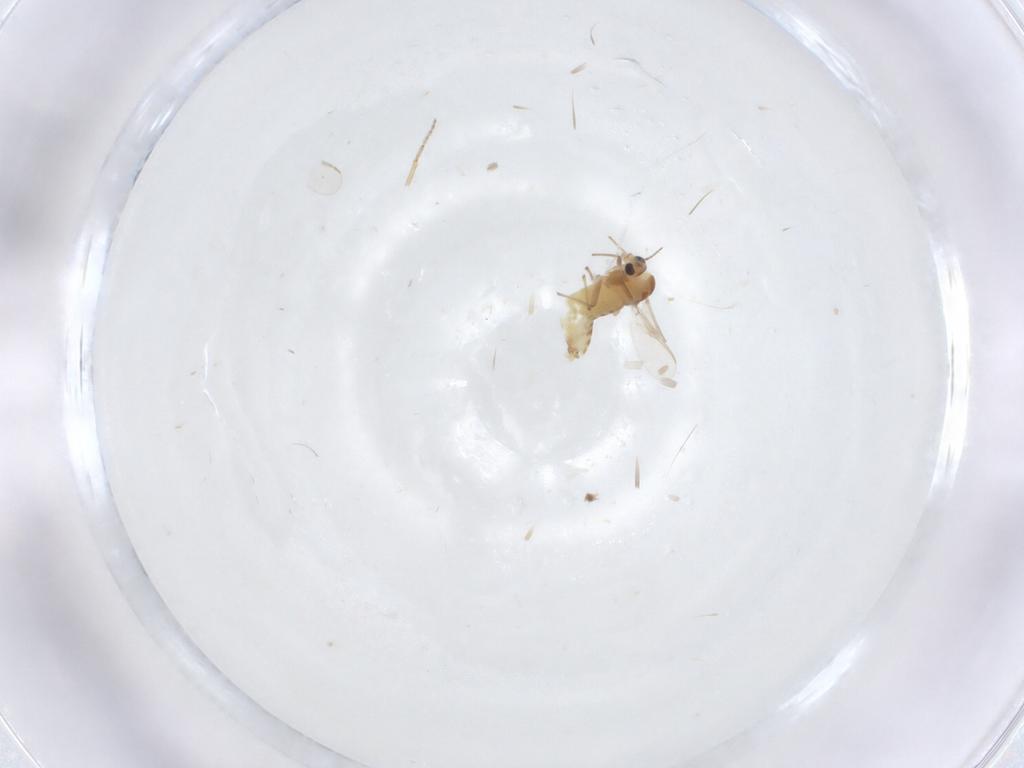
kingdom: Animalia
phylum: Arthropoda
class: Insecta
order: Diptera
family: Chironomidae
